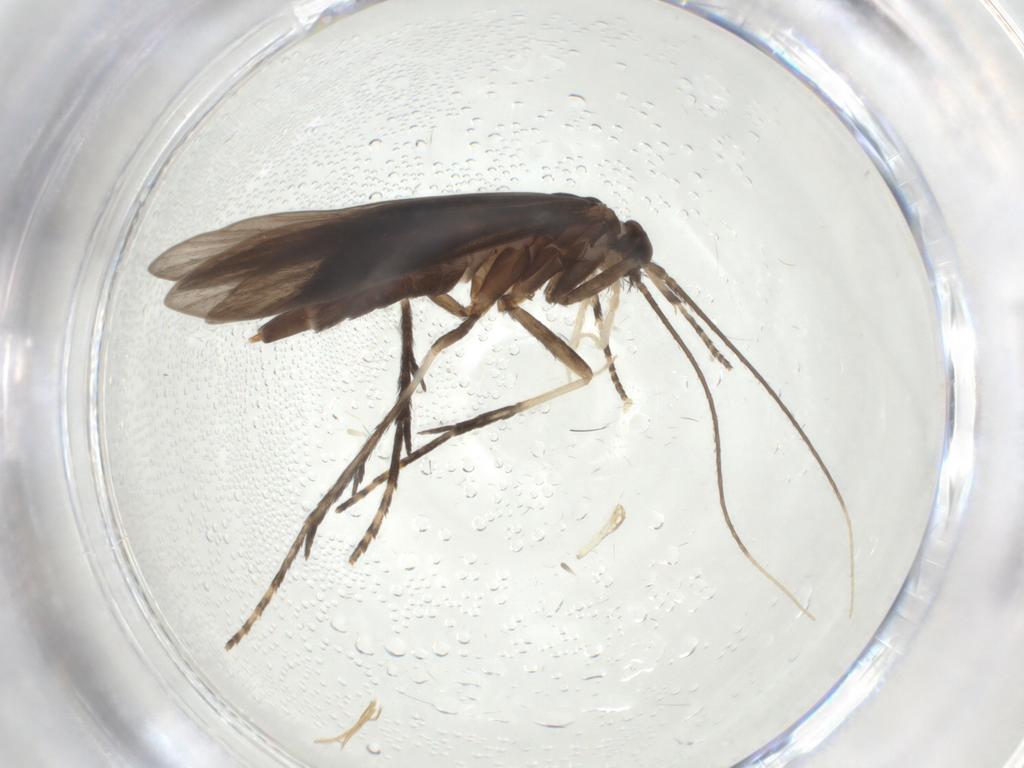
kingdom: Animalia
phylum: Arthropoda
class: Insecta
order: Trichoptera
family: Xiphocentronidae
